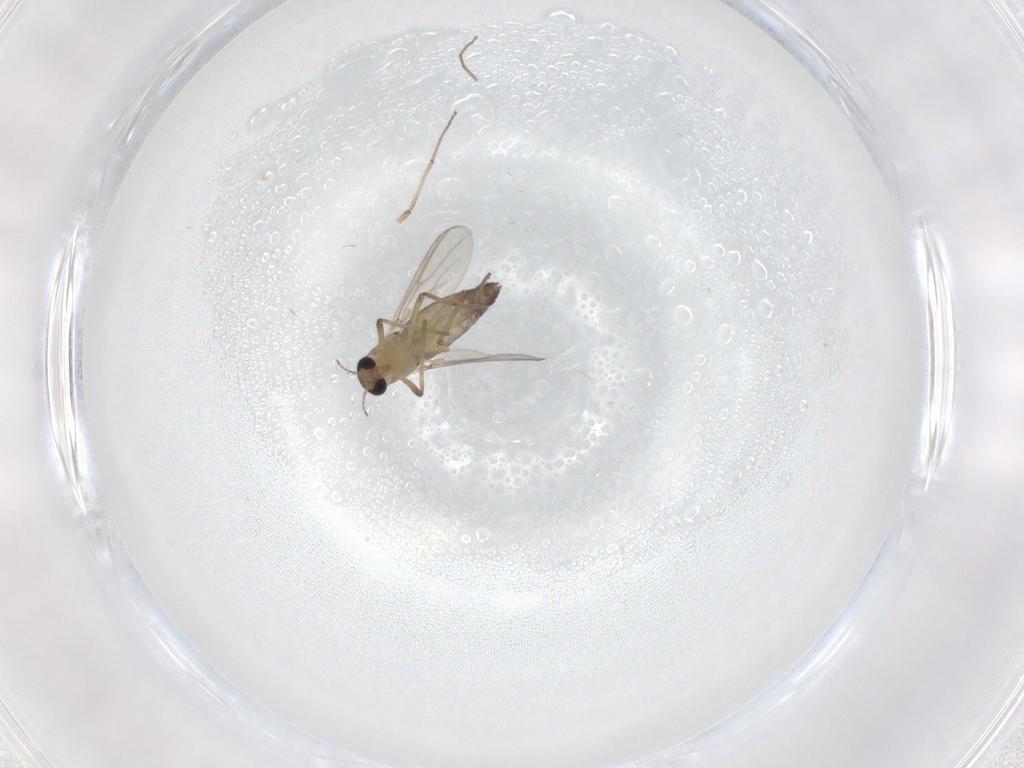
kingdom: Animalia
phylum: Arthropoda
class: Insecta
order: Diptera
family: Chironomidae
